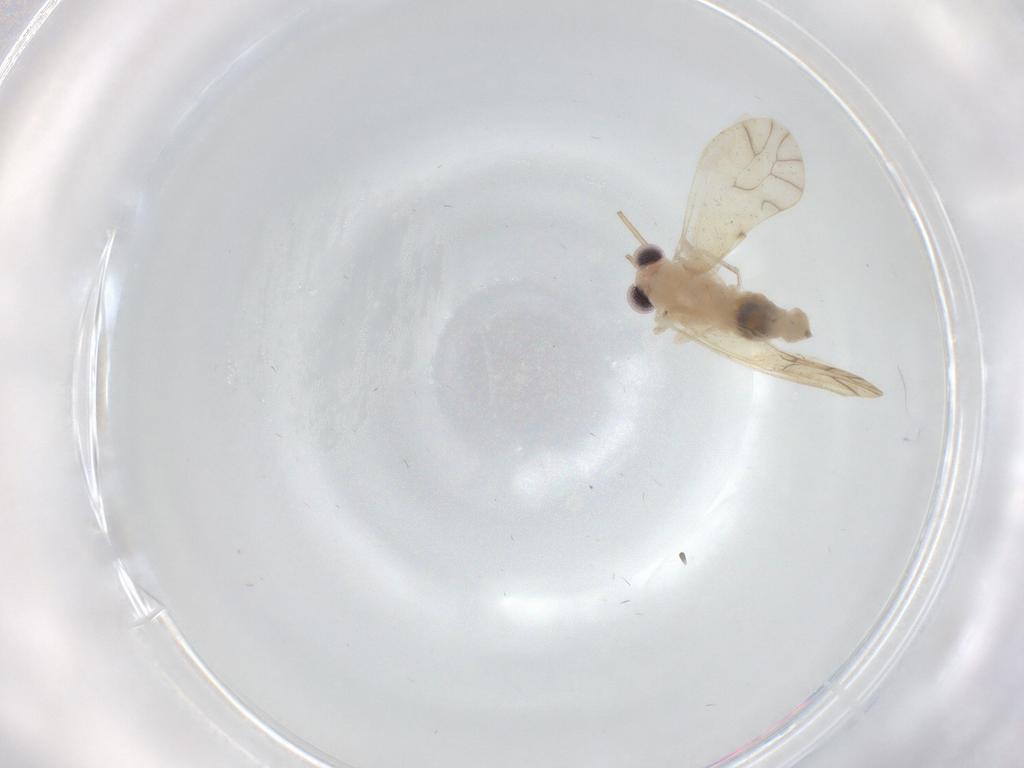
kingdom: Animalia
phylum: Arthropoda
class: Insecta
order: Psocodea
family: Caeciliusidae
